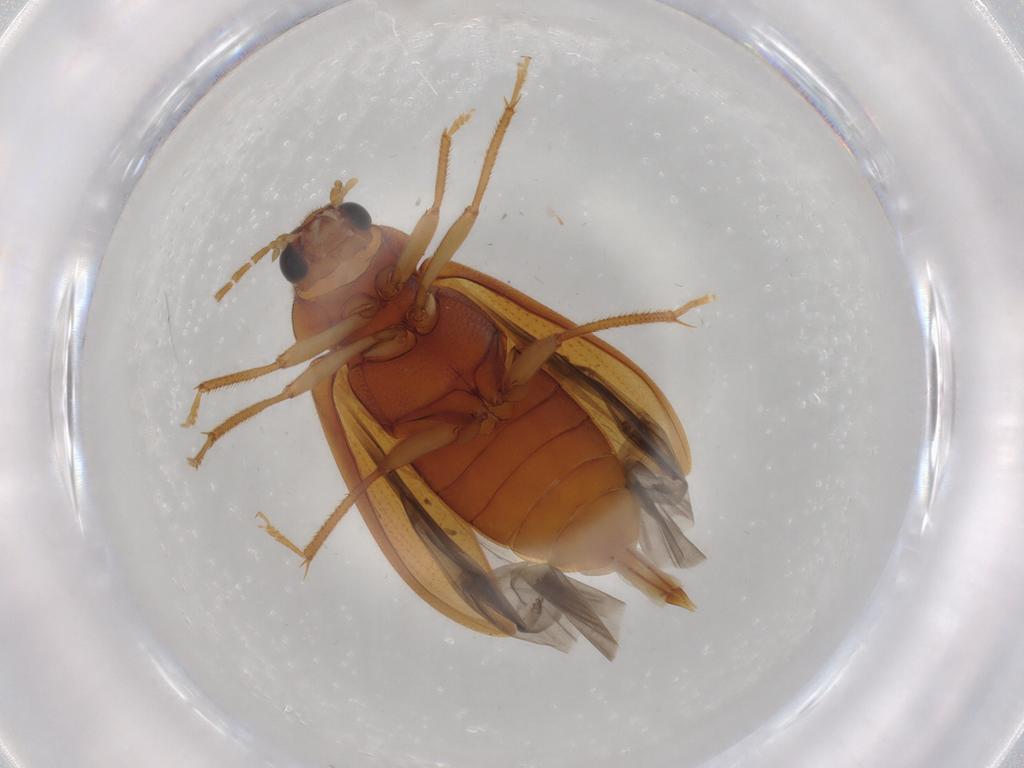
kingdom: Animalia
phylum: Arthropoda
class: Insecta
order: Coleoptera
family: Ptilodactylidae
